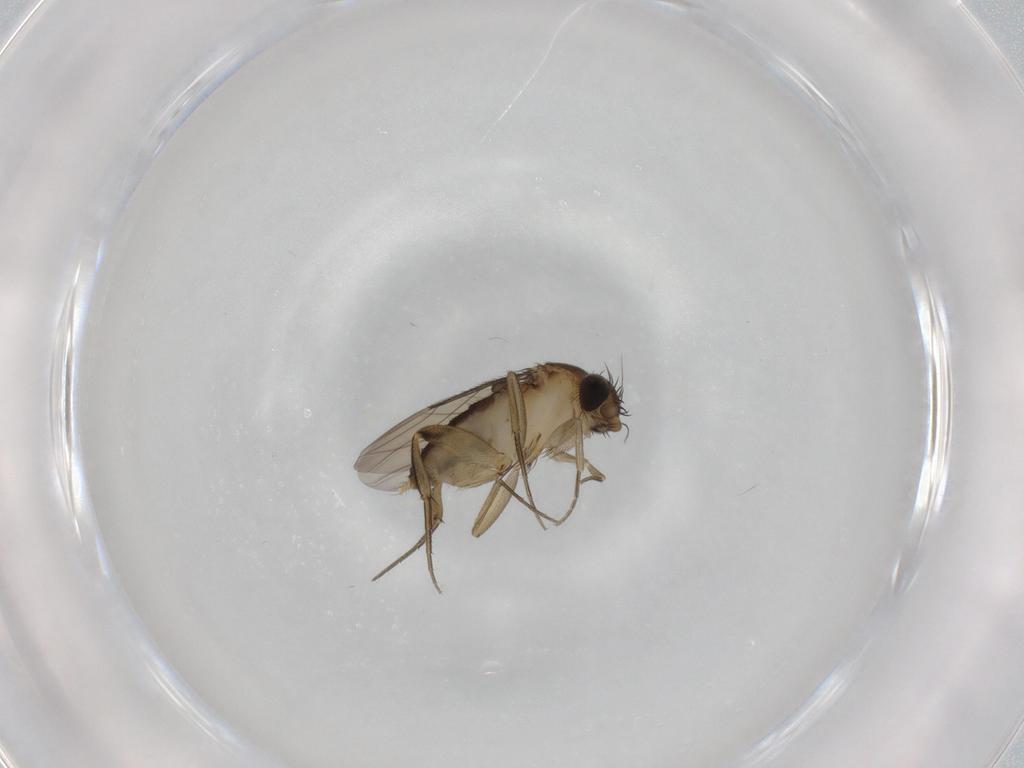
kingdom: Animalia
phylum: Arthropoda
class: Insecta
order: Diptera
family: Phoridae
